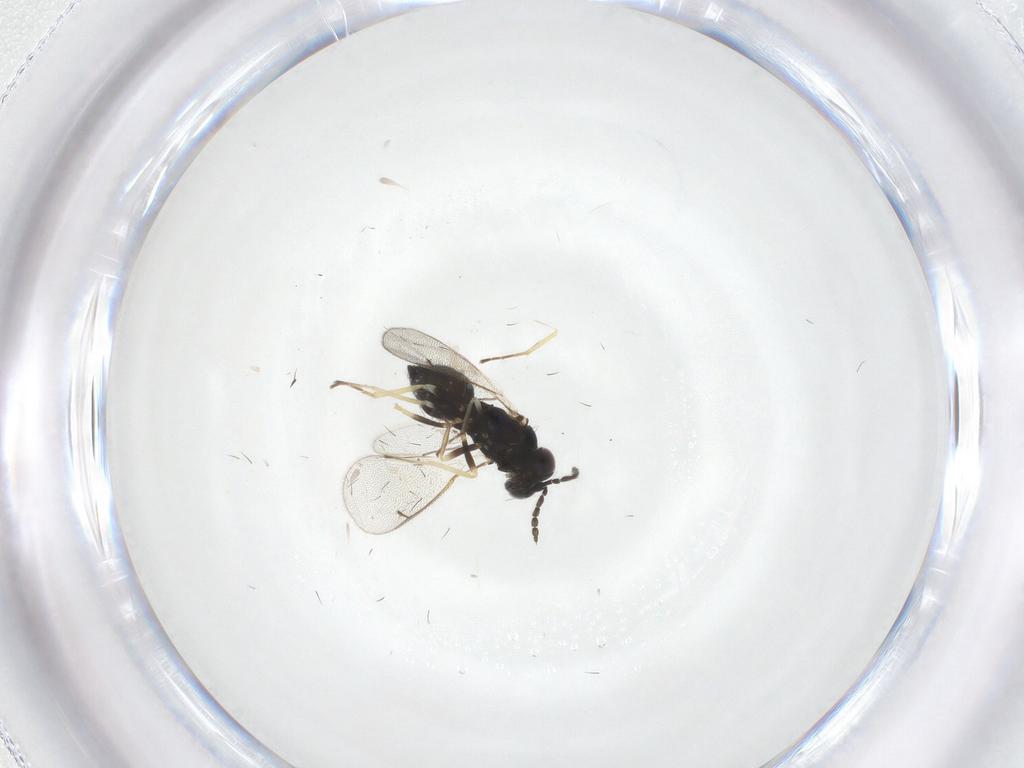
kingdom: Animalia
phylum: Arthropoda
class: Insecta
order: Hymenoptera
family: Eulophidae
